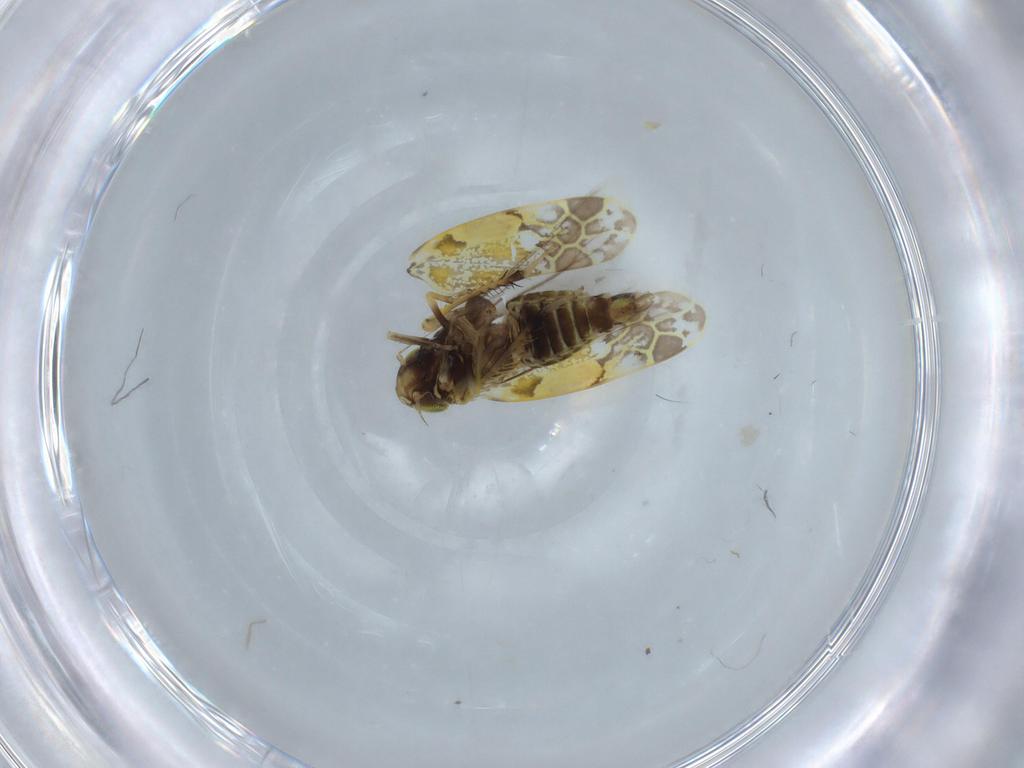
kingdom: Animalia
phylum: Arthropoda
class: Insecta
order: Hemiptera
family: Cicadellidae
